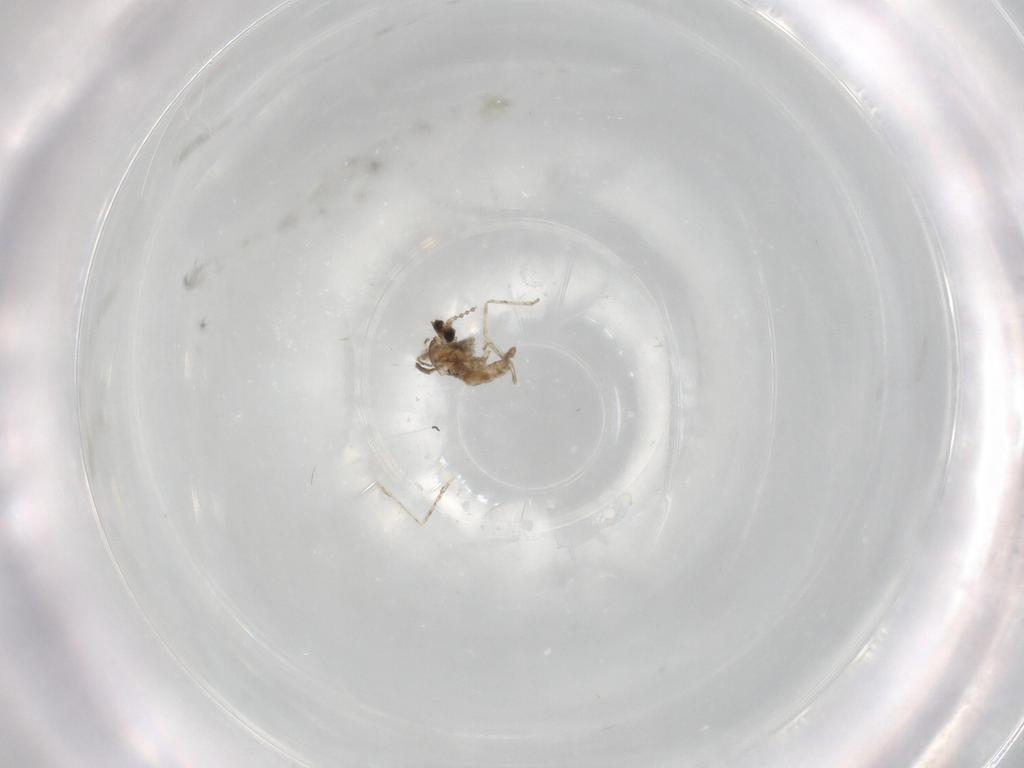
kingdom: Animalia
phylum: Arthropoda
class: Insecta
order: Diptera
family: Cecidomyiidae
